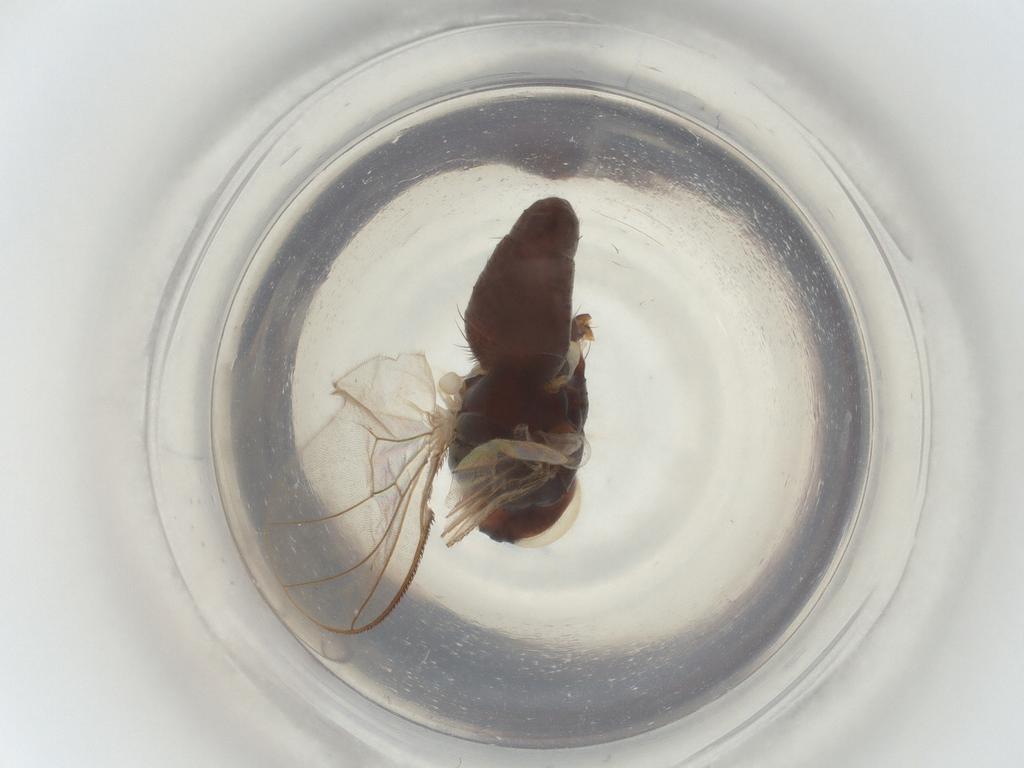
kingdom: Animalia
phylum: Arthropoda
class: Insecta
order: Diptera
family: Muscidae
